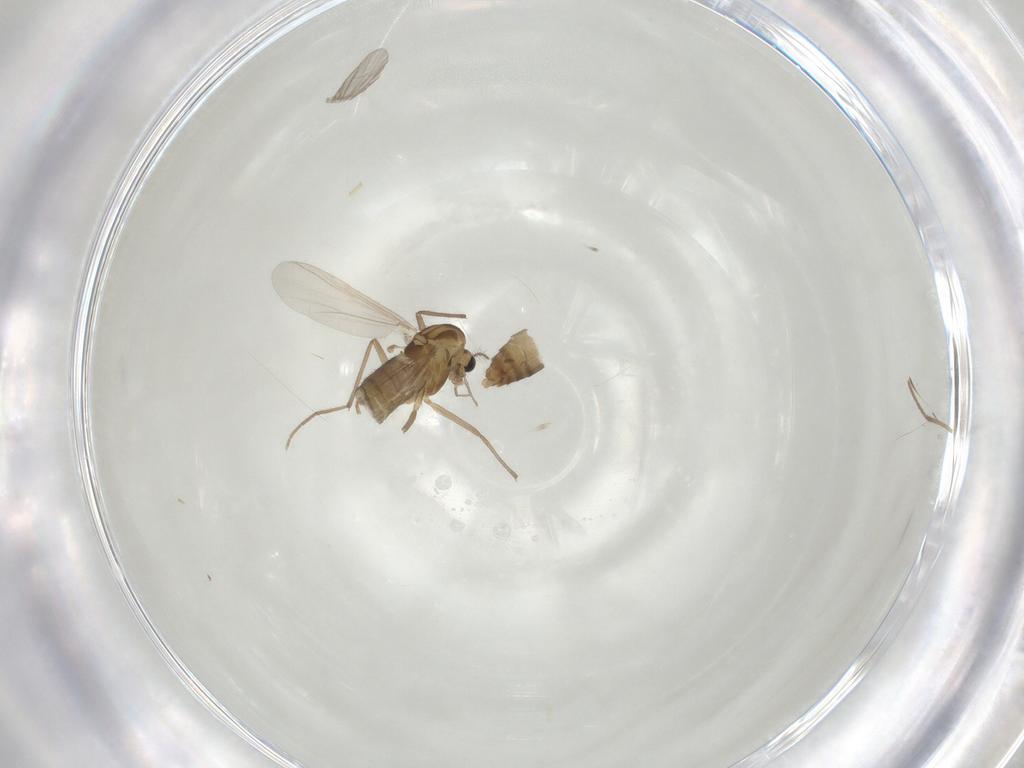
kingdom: Animalia
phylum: Arthropoda
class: Insecta
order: Diptera
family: Chironomidae
